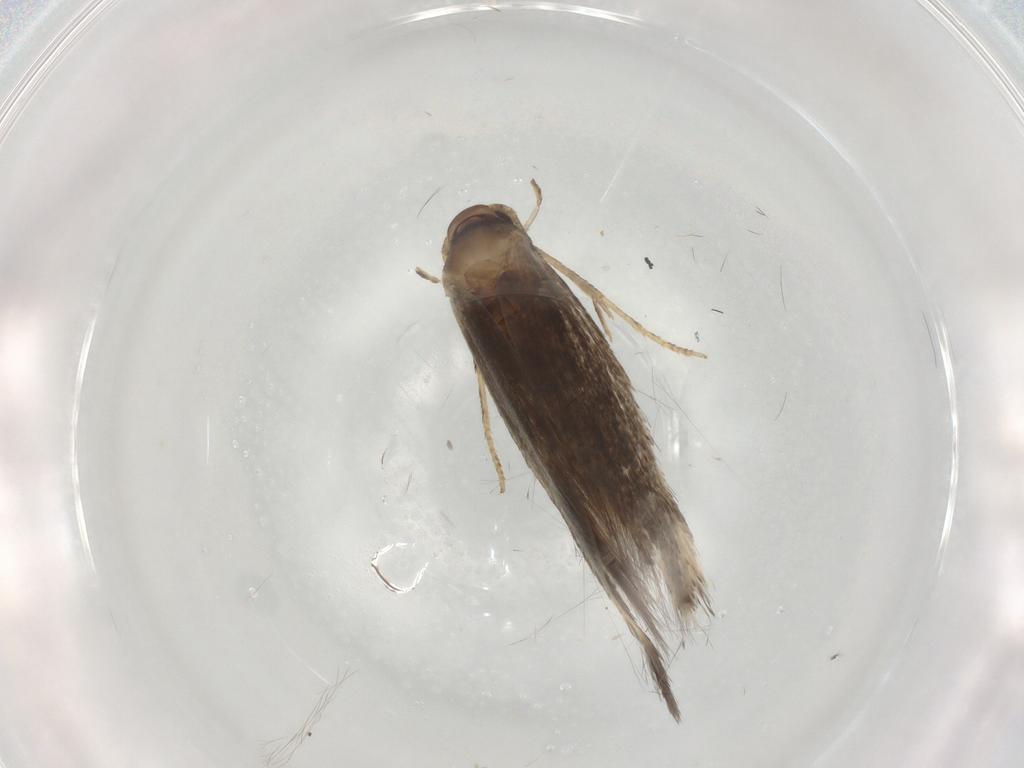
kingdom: Animalia
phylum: Arthropoda
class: Insecta
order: Lepidoptera
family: Elachistidae
